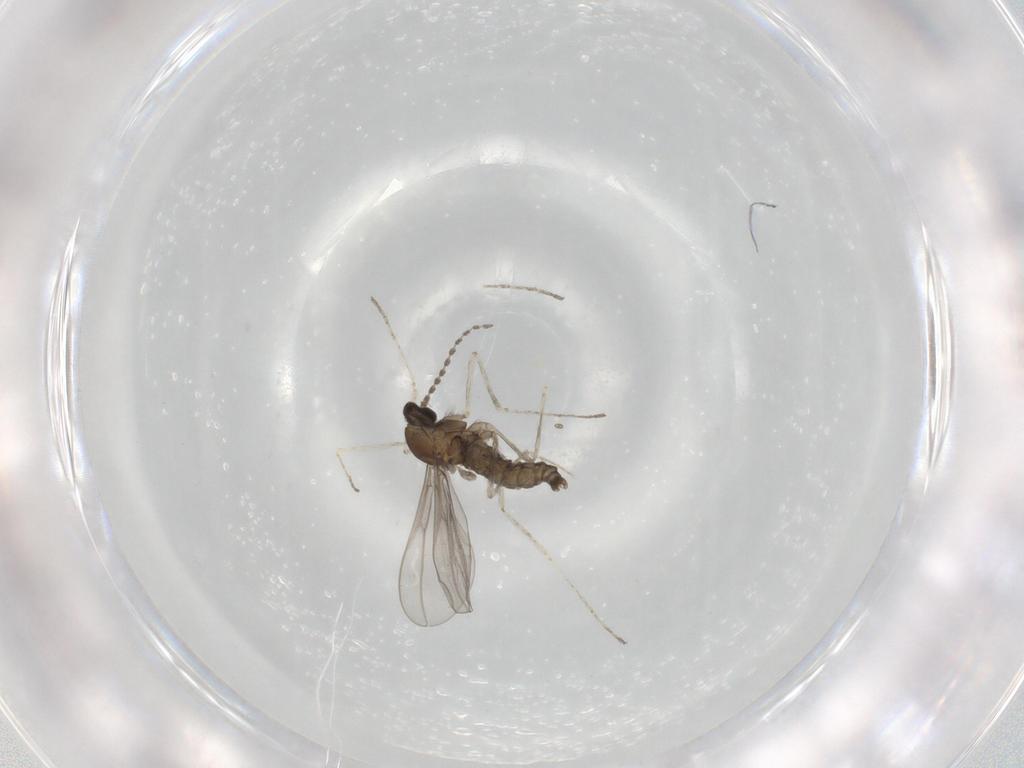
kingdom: Animalia
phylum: Arthropoda
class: Insecta
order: Diptera
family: Cecidomyiidae
